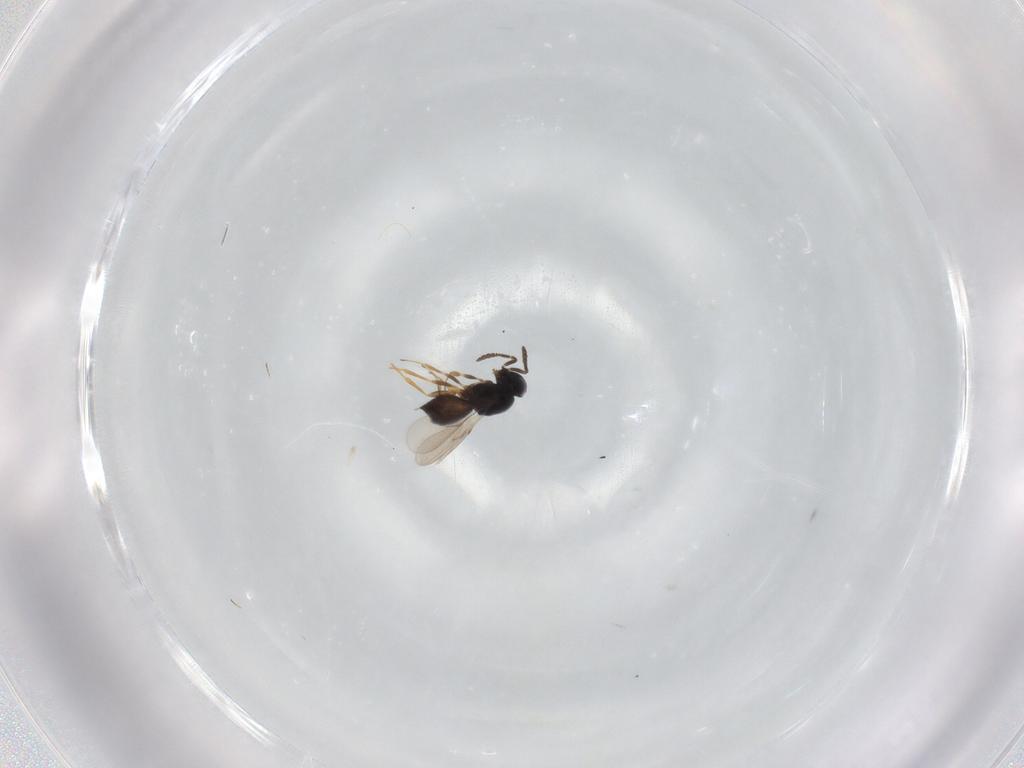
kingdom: Animalia
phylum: Arthropoda
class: Insecta
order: Hymenoptera
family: Scelionidae
